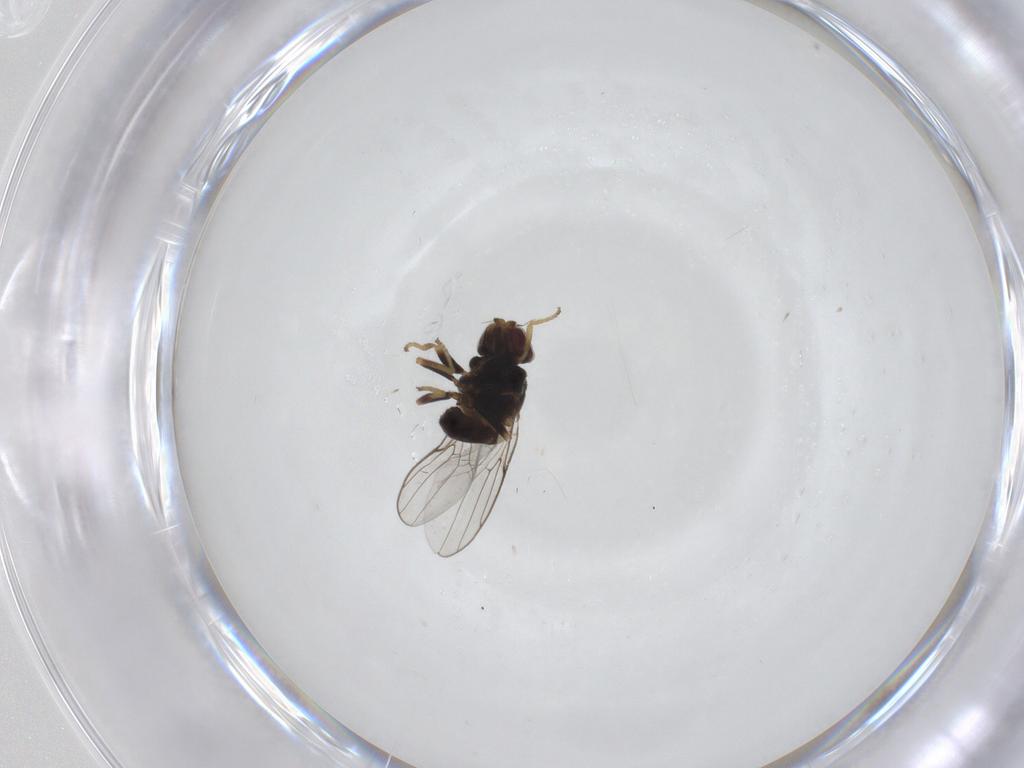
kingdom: Animalia
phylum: Arthropoda
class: Insecta
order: Diptera
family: Chloropidae
